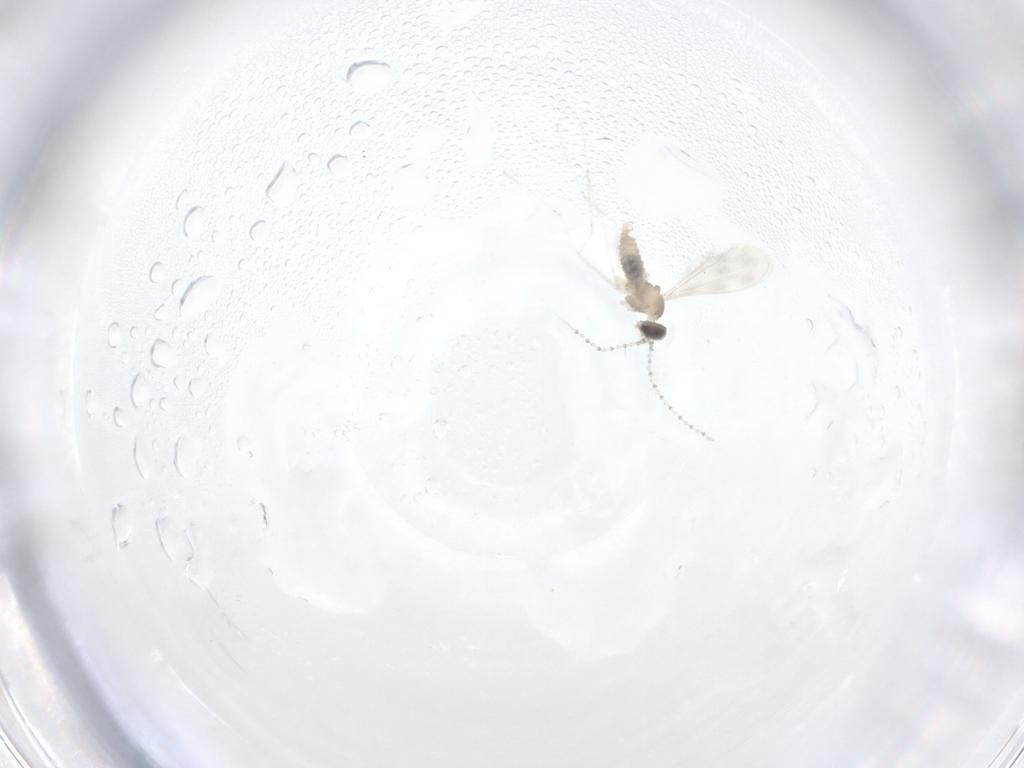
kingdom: Animalia
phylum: Arthropoda
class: Insecta
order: Diptera
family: Cecidomyiidae
